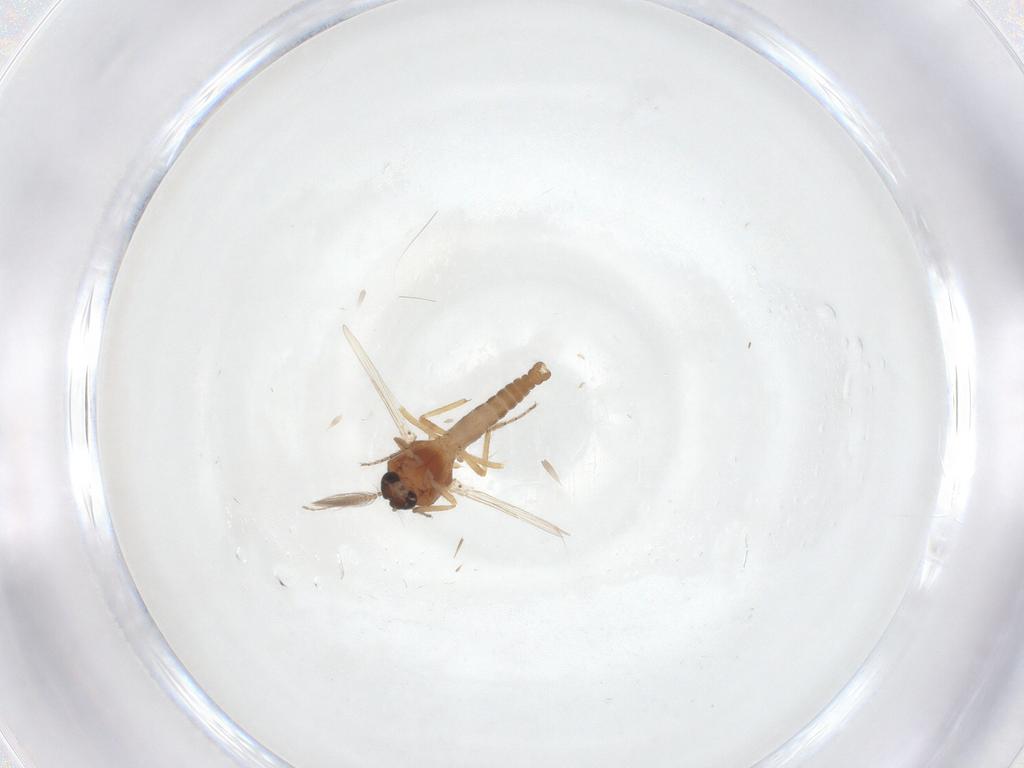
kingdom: Animalia
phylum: Arthropoda
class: Insecta
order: Diptera
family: Ceratopogonidae
